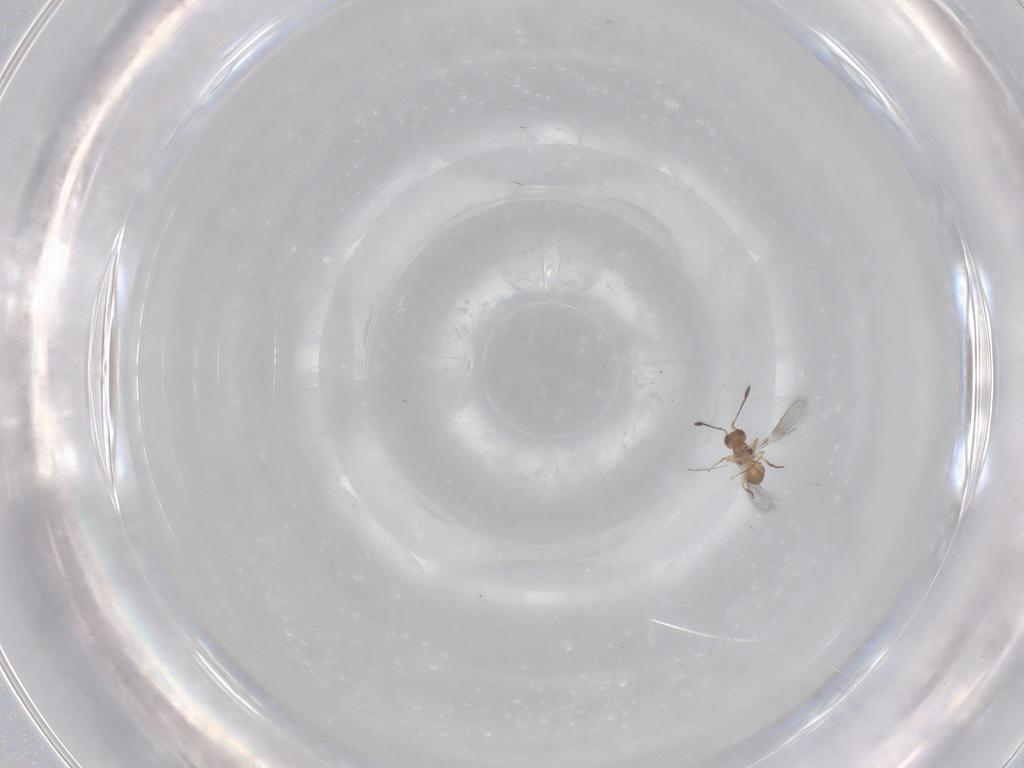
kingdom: Animalia
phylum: Arthropoda
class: Insecta
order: Hymenoptera
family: Mymaridae
